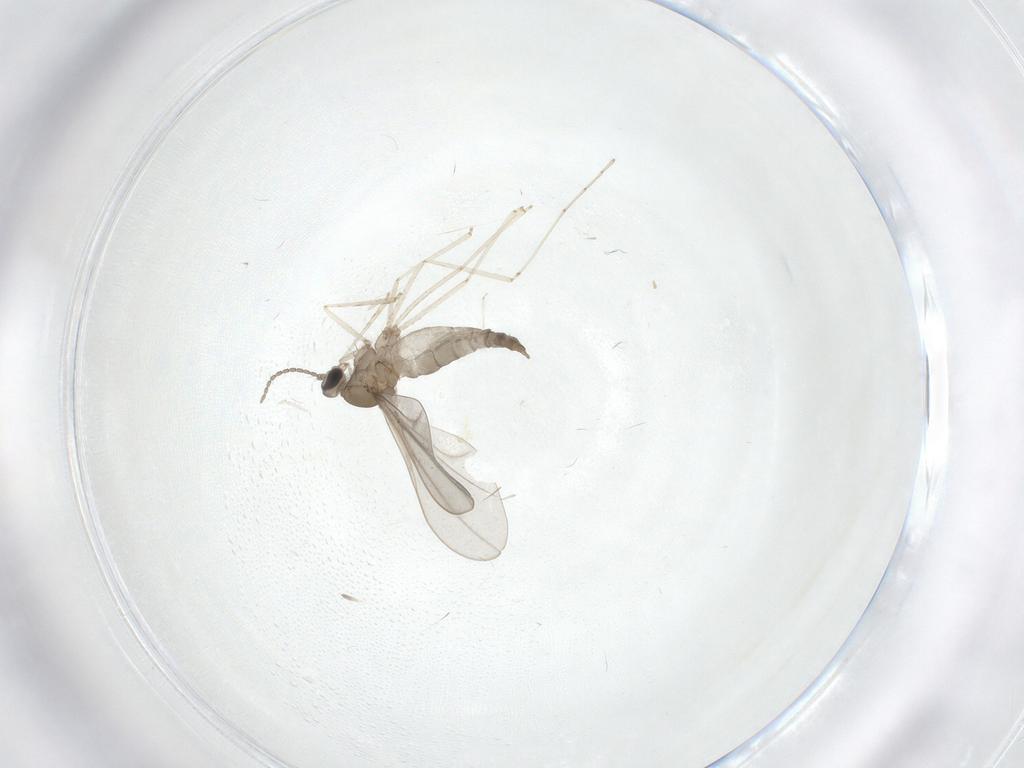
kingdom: Animalia
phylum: Arthropoda
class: Insecta
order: Diptera
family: Cecidomyiidae
